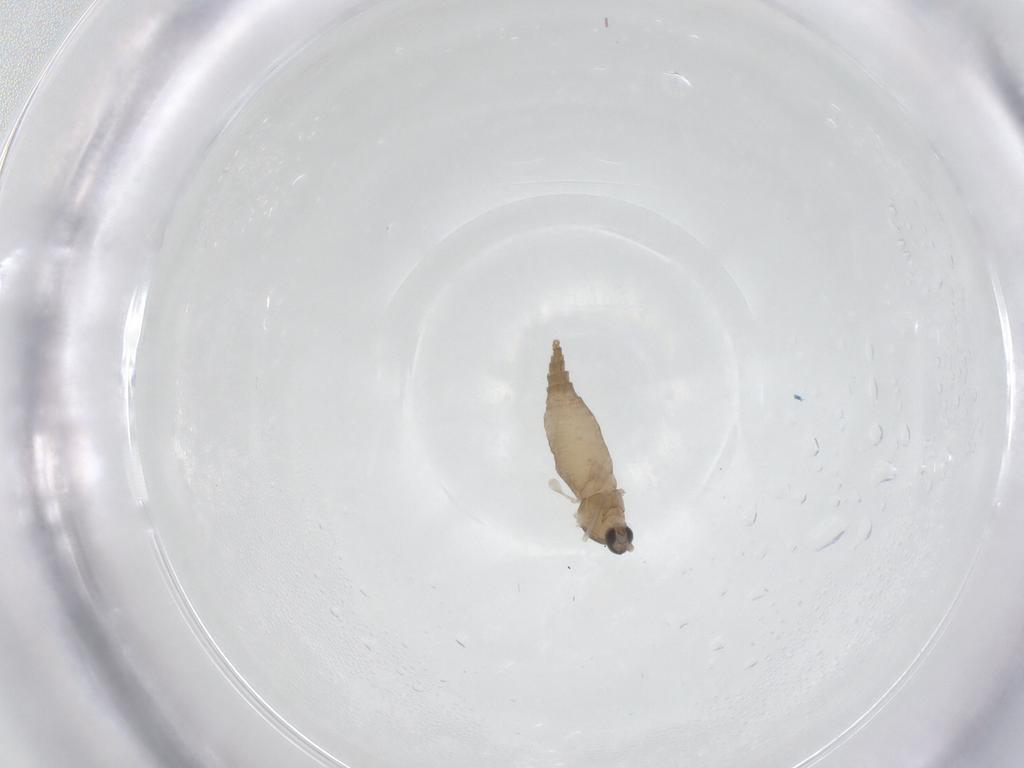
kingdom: Animalia
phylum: Arthropoda
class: Insecta
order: Diptera
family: Cecidomyiidae
